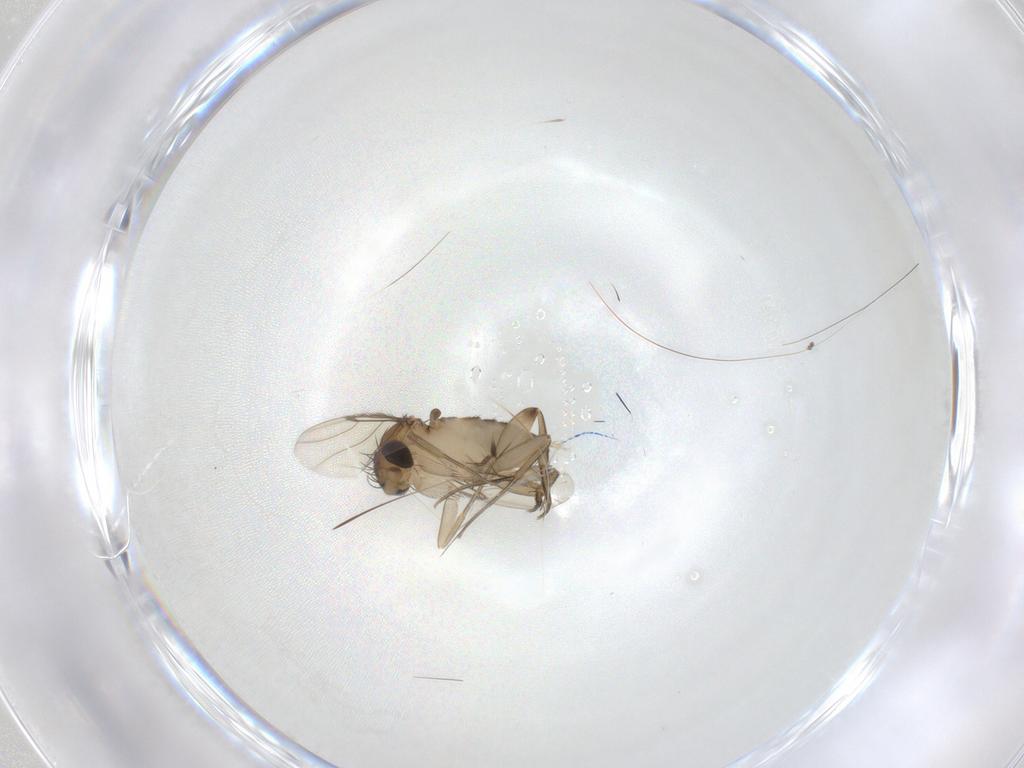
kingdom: Animalia
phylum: Arthropoda
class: Insecta
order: Diptera
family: Phoridae
